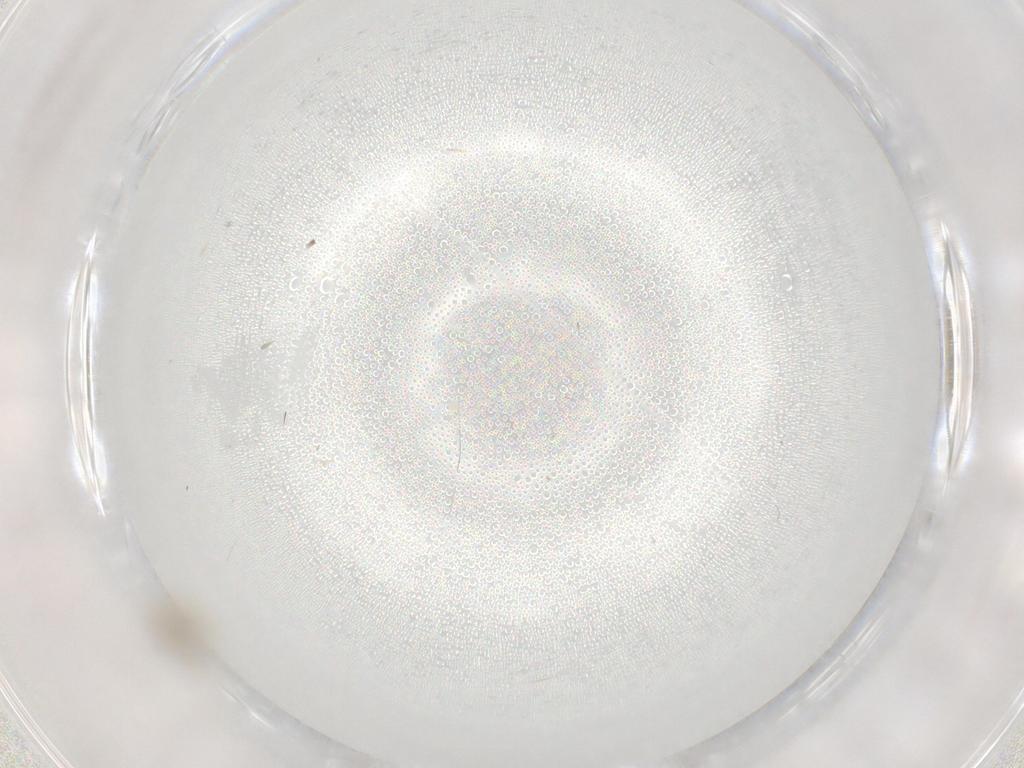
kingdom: Animalia
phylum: Arthropoda
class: Insecta
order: Diptera
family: Cecidomyiidae
